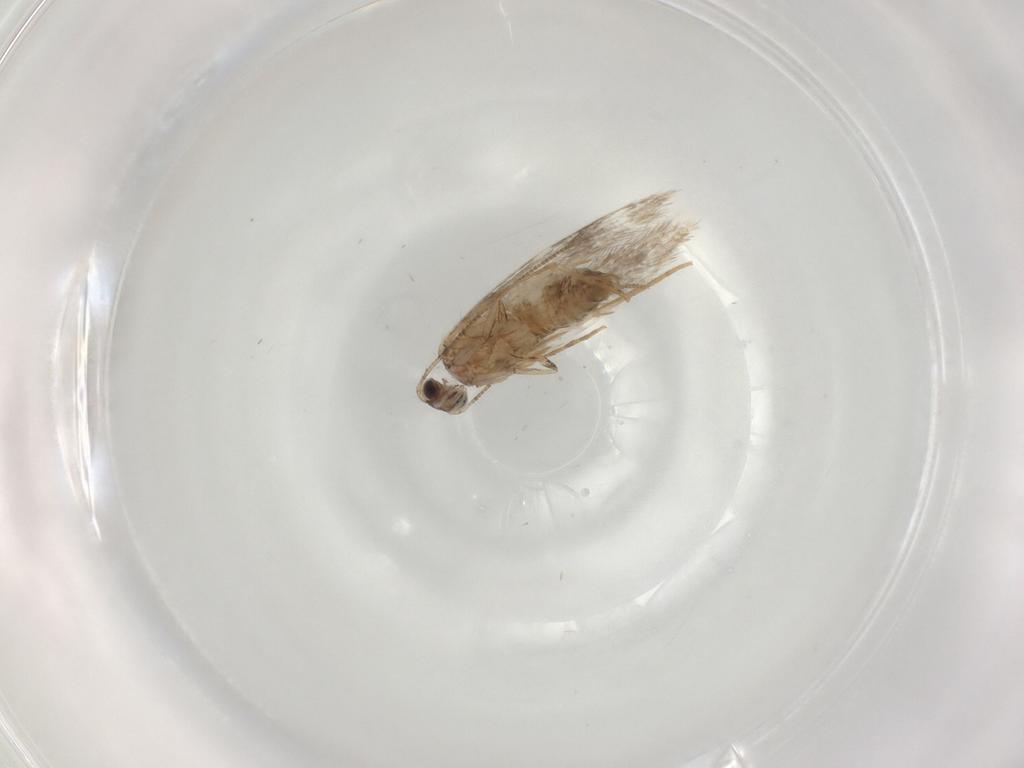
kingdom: Animalia
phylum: Arthropoda
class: Insecta
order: Lepidoptera
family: Tineidae
